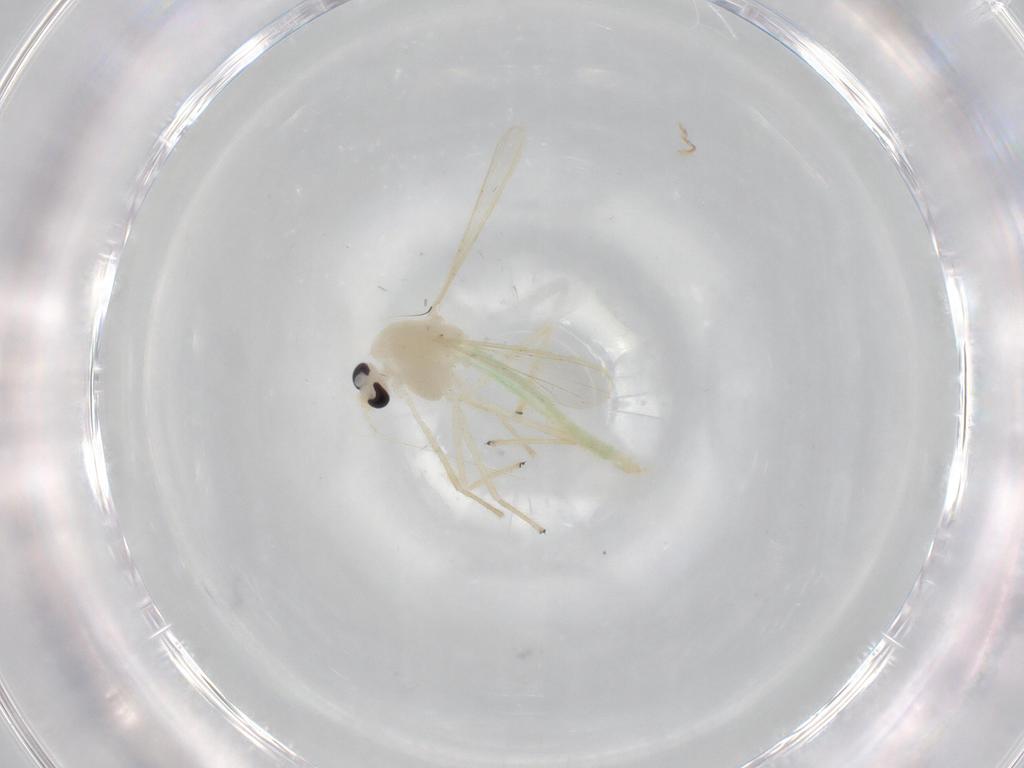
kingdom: Animalia
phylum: Arthropoda
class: Insecta
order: Diptera
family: Chironomidae
